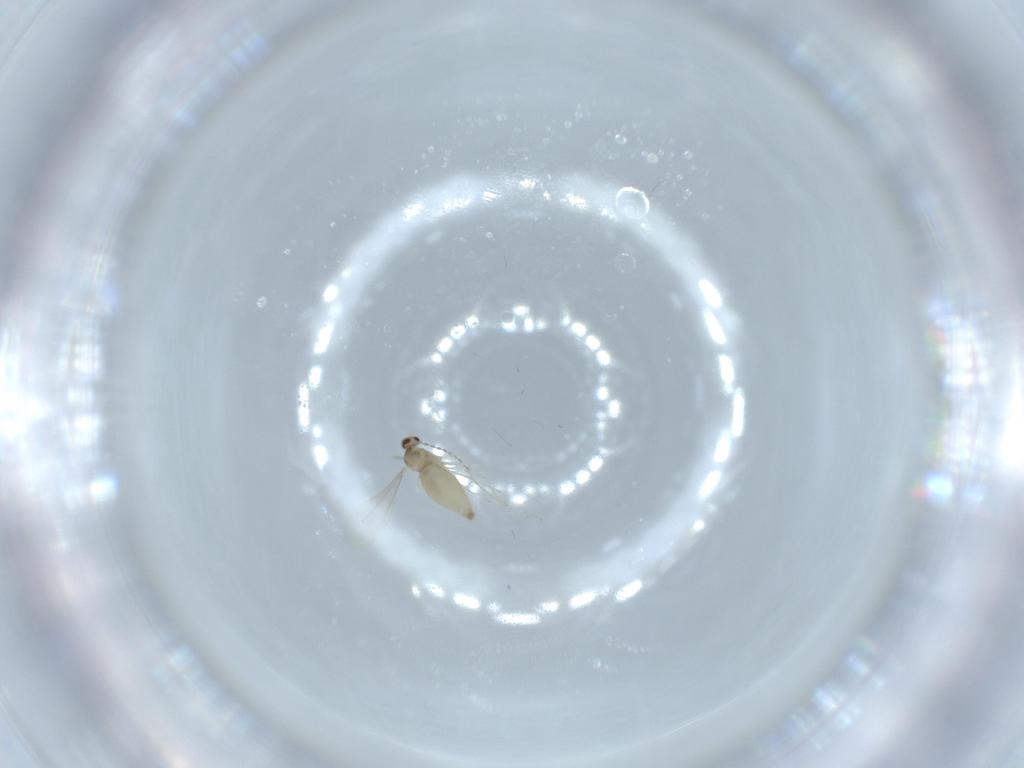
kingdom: Animalia
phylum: Arthropoda
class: Insecta
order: Diptera
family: Cecidomyiidae
